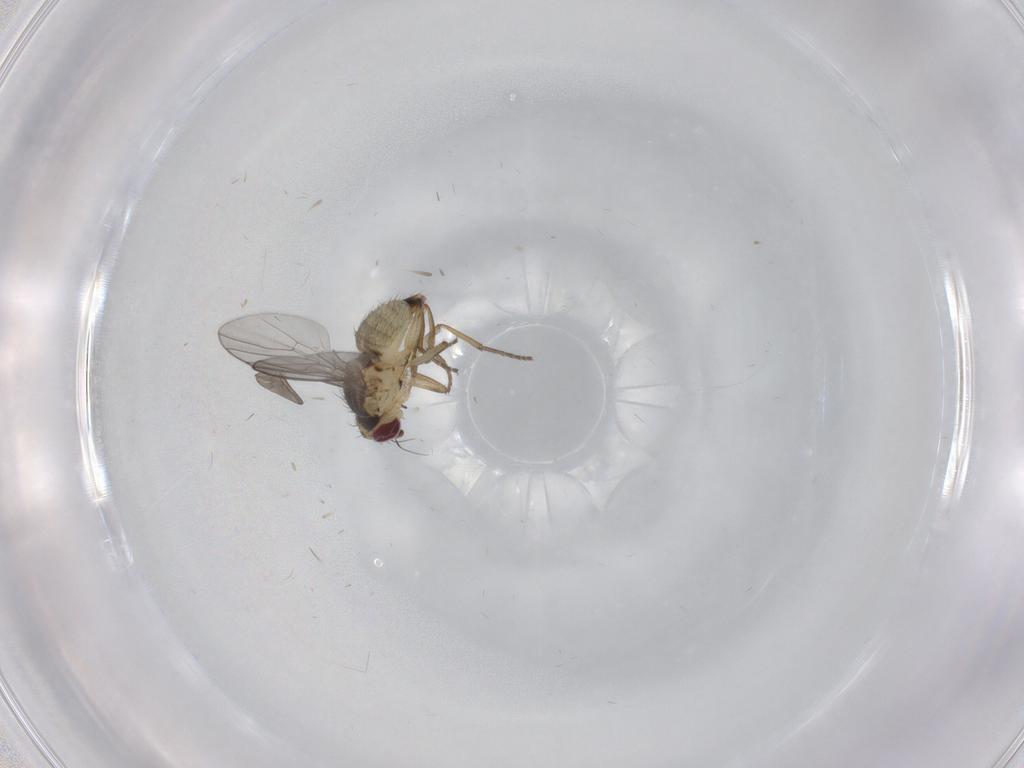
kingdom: Animalia
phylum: Arthropoda
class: Insecta
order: Diptera
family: Agromyzidae
